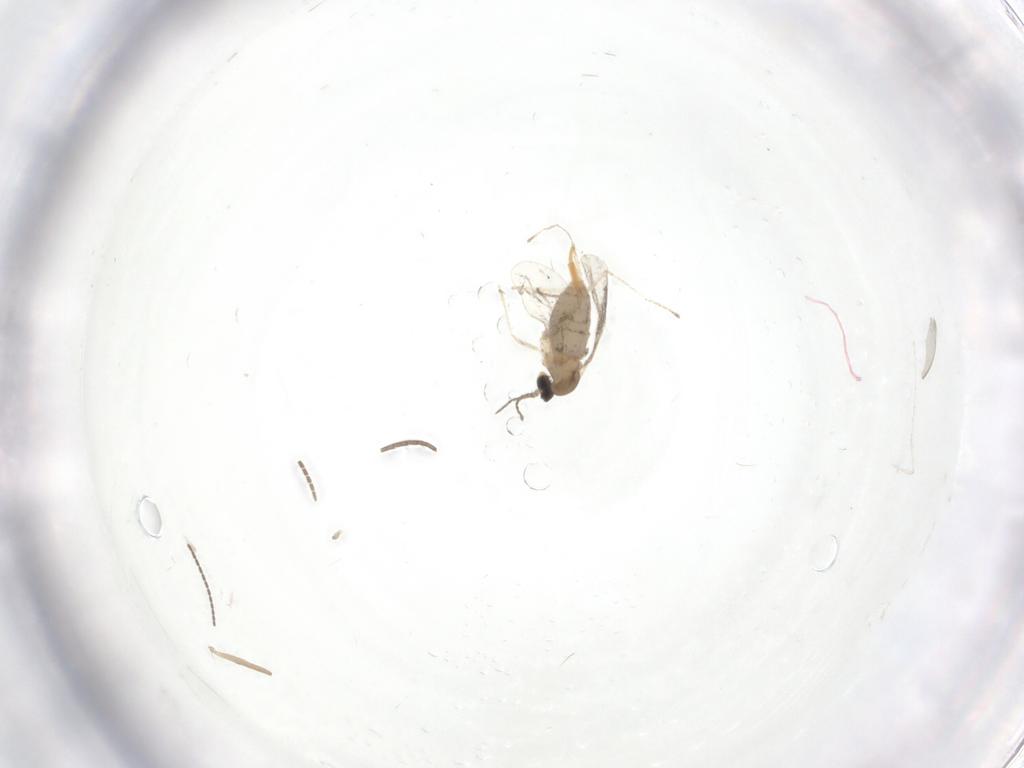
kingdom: Animalia
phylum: Arthropoda
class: Insecta
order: Diptera
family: Cecidomyiidae
